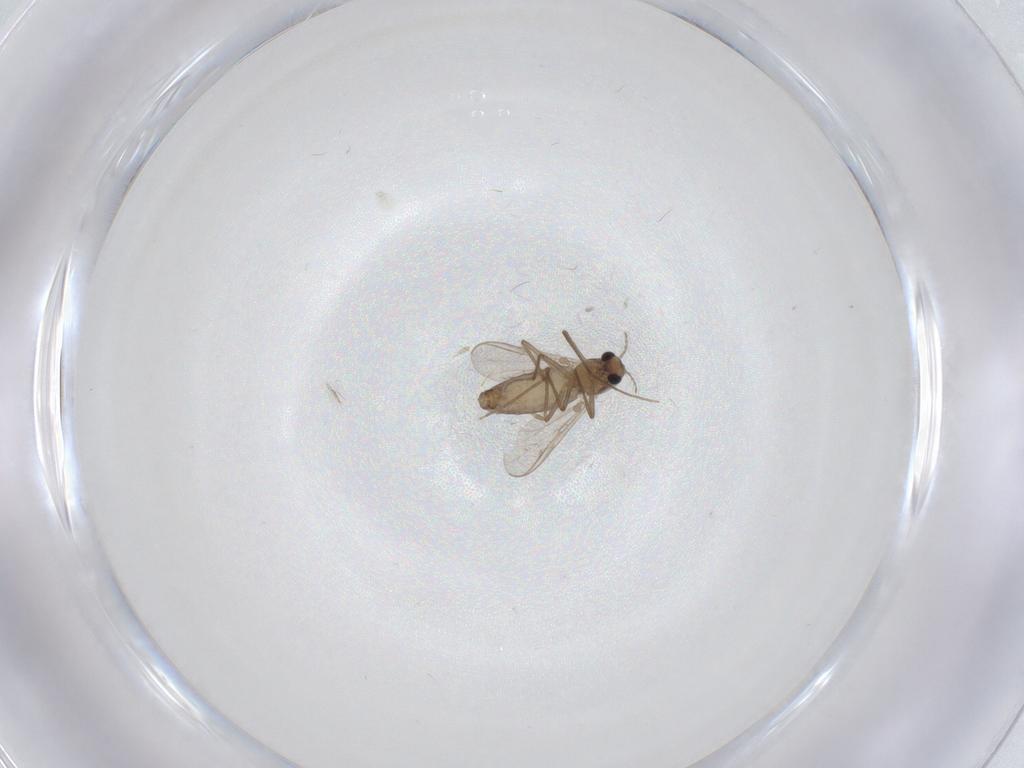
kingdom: Animalia
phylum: Arthropoda
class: Insecta
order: Diptera
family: Chironomidae
